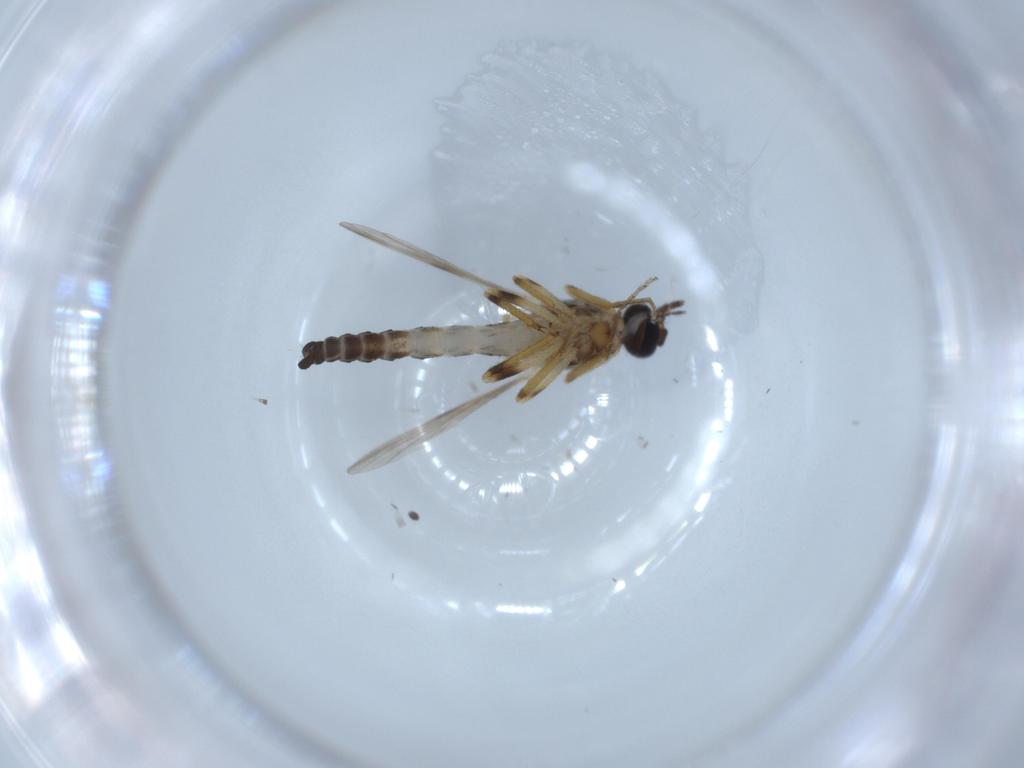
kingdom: Animalia
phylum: Arthropoda
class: Insecta
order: Diptera
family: Ceratopogonidae
